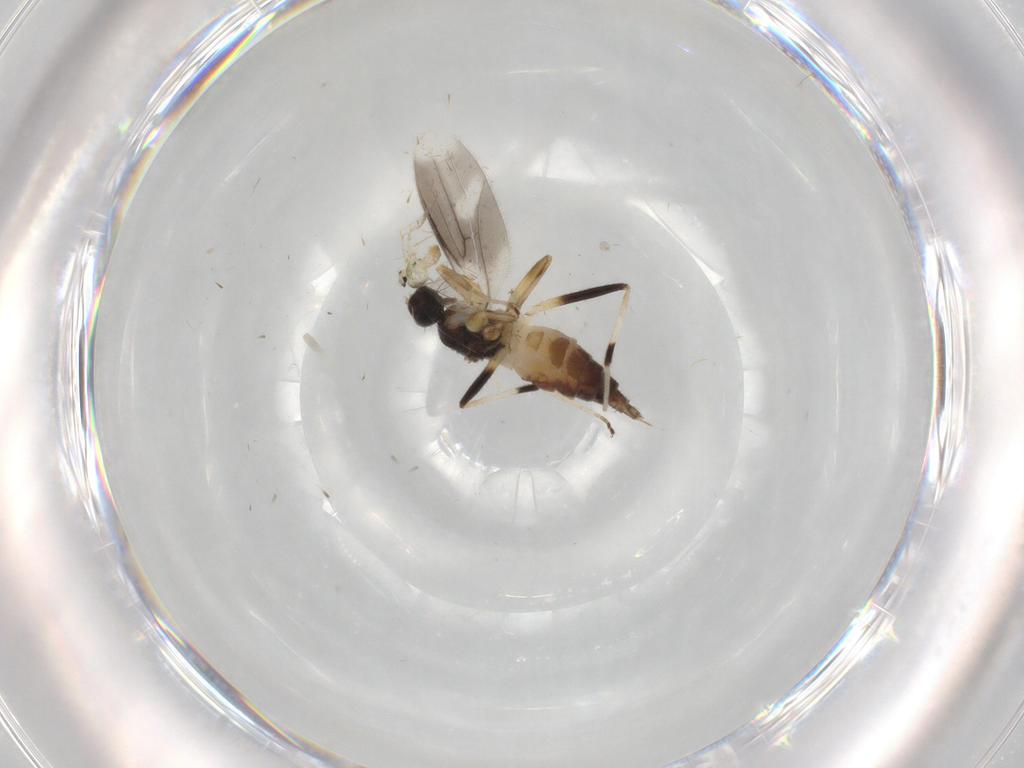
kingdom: Animalia
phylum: Arthropoda
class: Insecta
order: Diptera
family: Hybotidae
